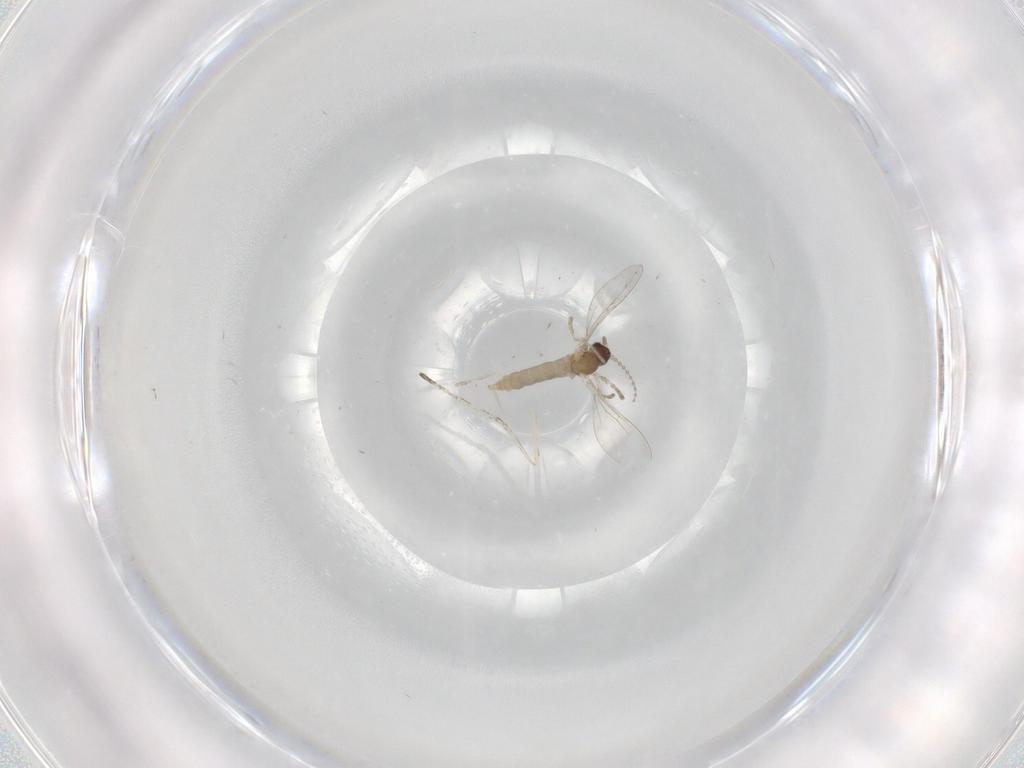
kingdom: Animalia
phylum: Arthropoda
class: Insecta
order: Diptera
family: Cecidomyiidae
